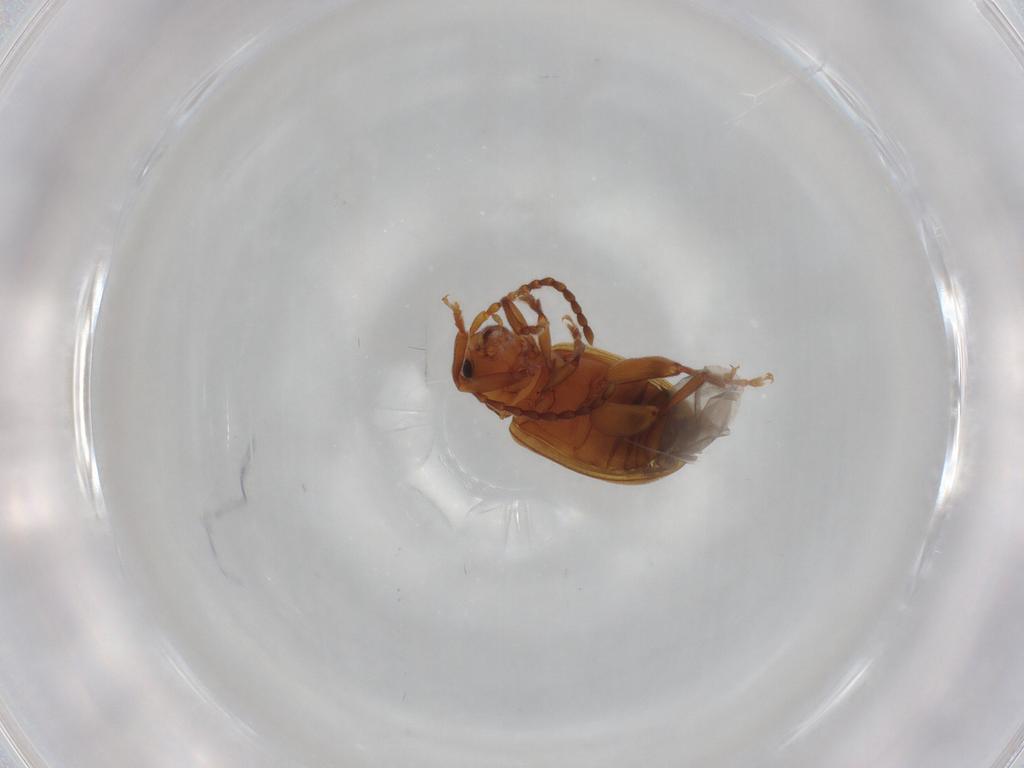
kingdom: Animalia
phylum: Arthropoda
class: Insecta
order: Coleoptera
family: Chrysomelidae
